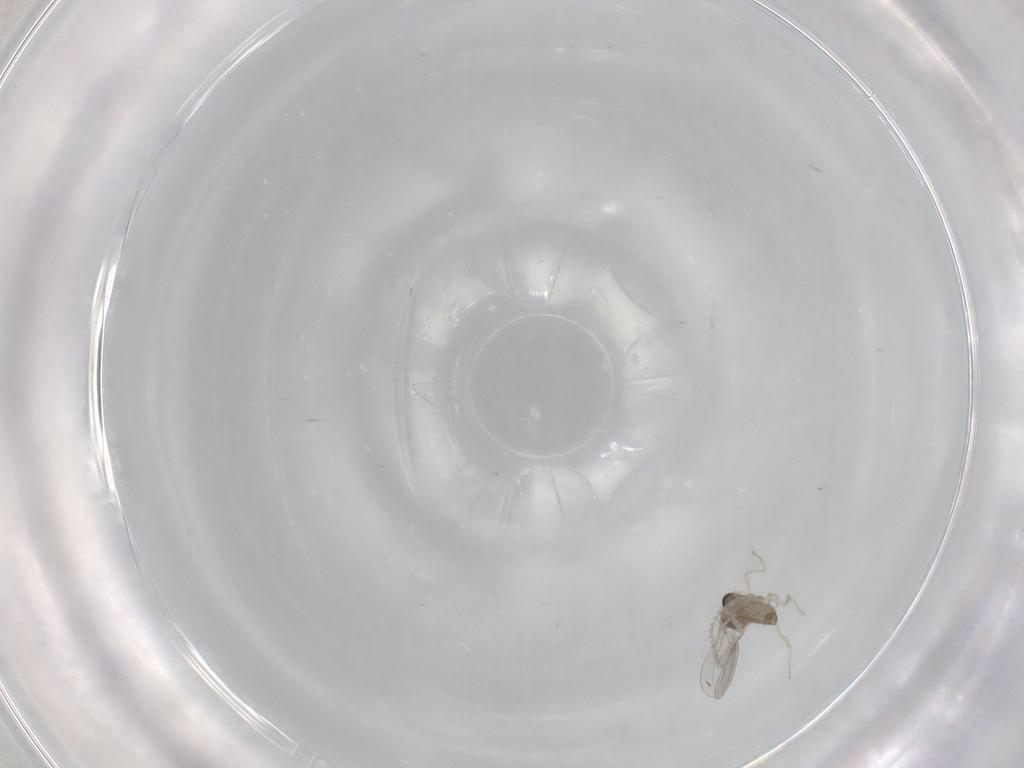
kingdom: Animalia
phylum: Arthropoda
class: Insecta
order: Diptera
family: Cecidomyiidae
